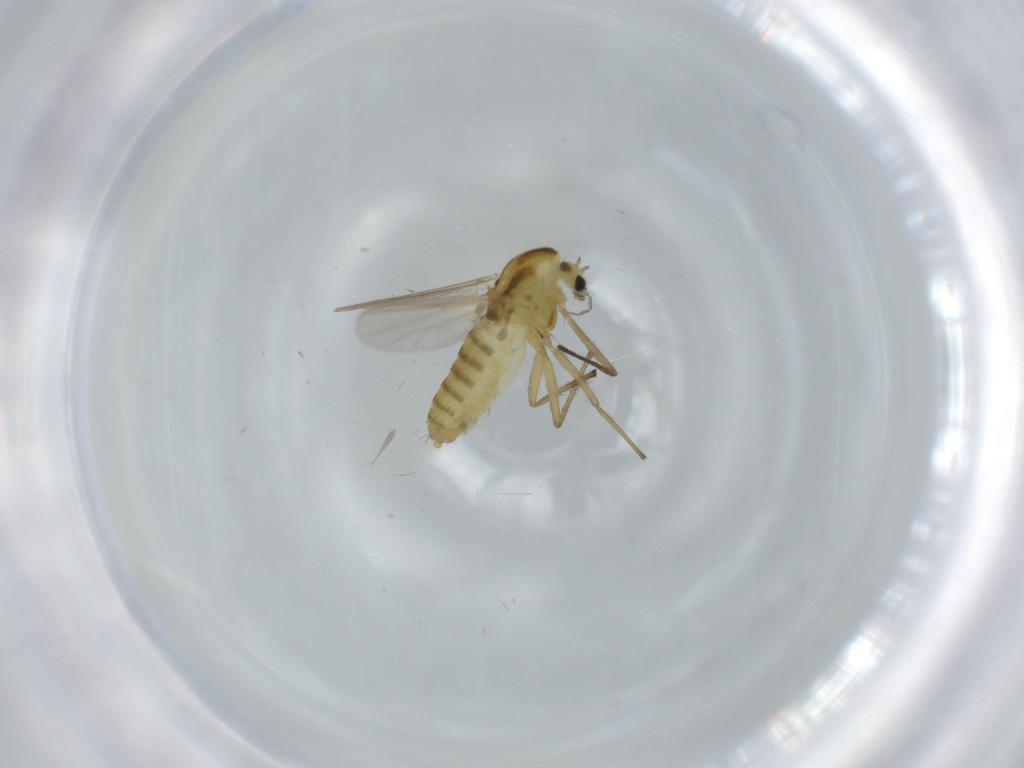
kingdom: Animalia
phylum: Arthropoda
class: Insecta
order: Diptera
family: Chironomidae
